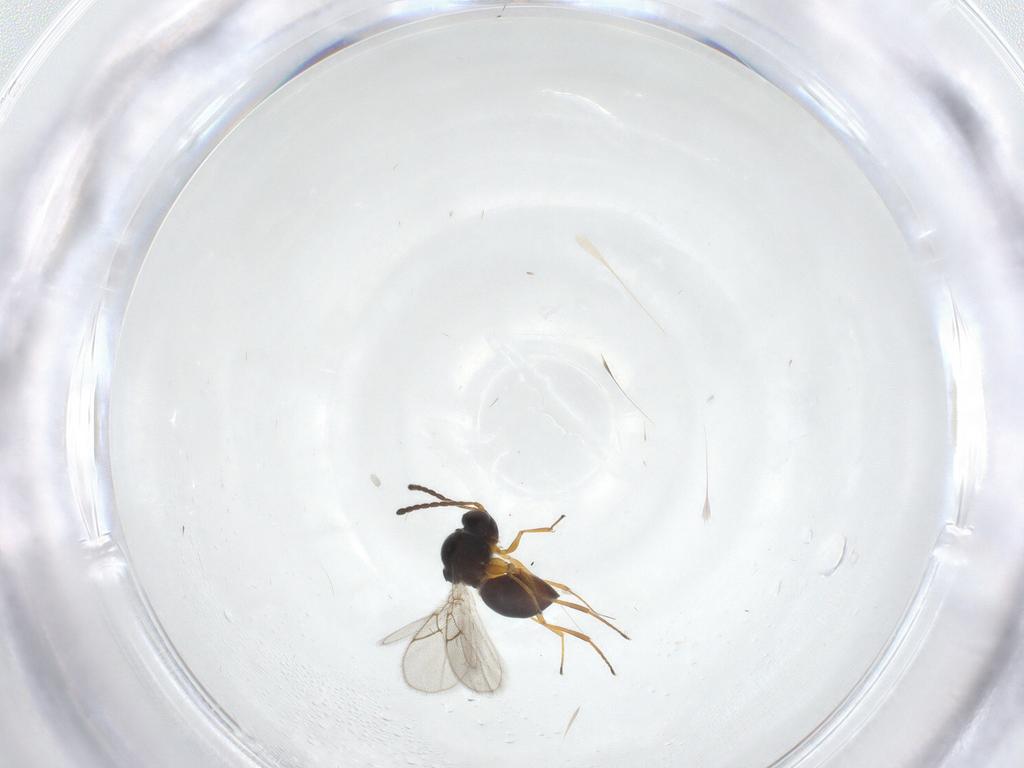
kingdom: Animalia
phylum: Arthropoda
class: Insecta
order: Hymenoptera
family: Figitidae
